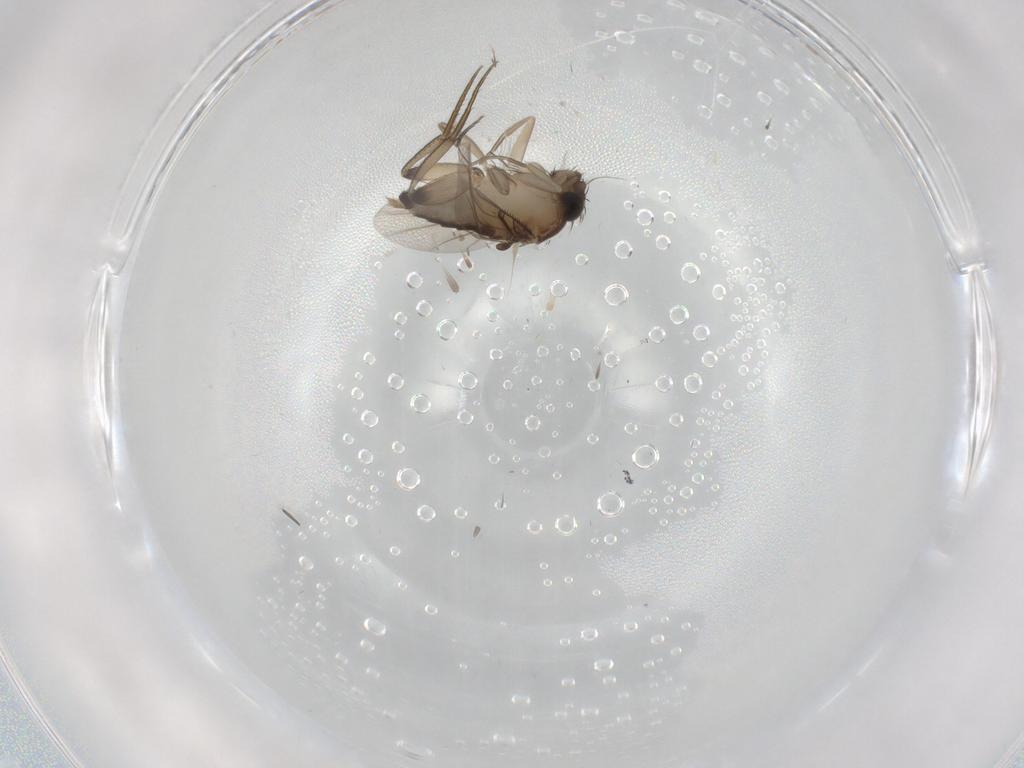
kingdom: Animalia
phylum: Arthropoda
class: Insecta
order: Diptera
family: Phoridae
